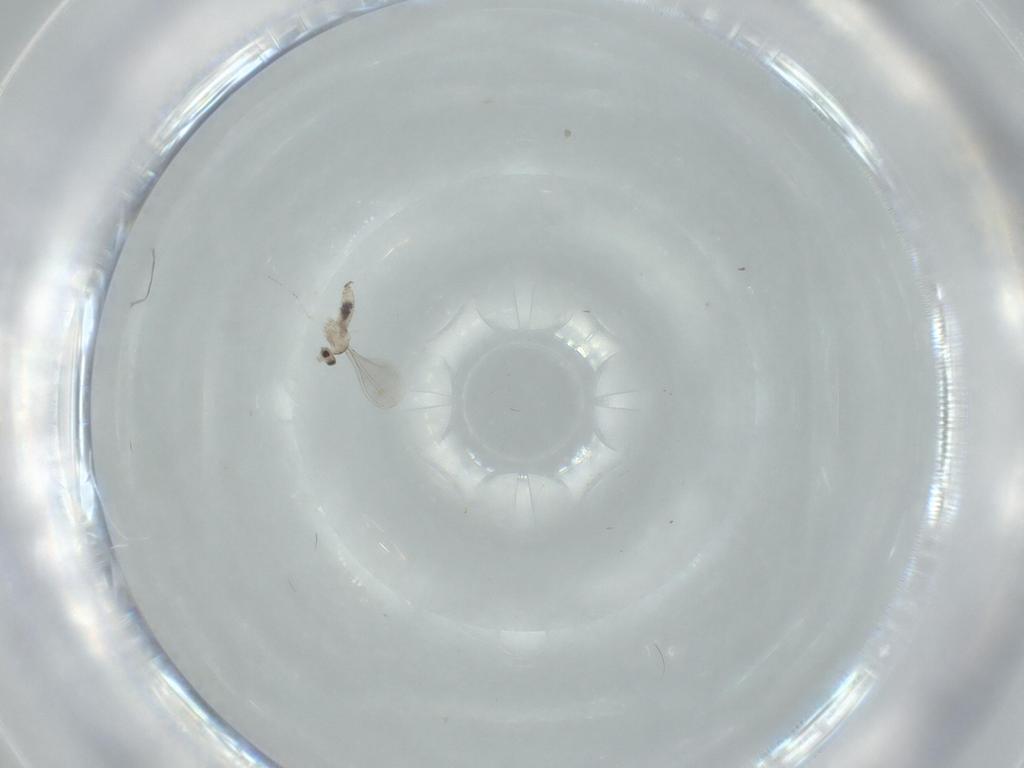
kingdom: Animalia
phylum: Arthropoda
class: Insecta
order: Diptera
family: Cecidomyiidae
